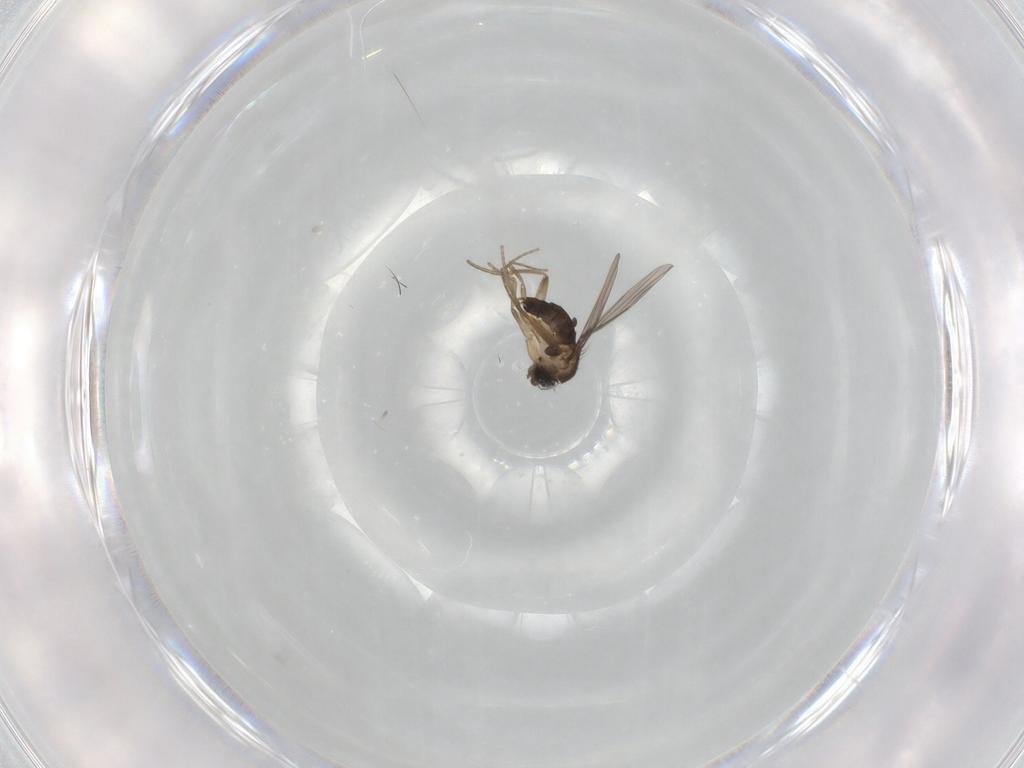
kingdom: Animalia
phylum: Arthropoda
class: Insecta
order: Diptera
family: Phoridae
